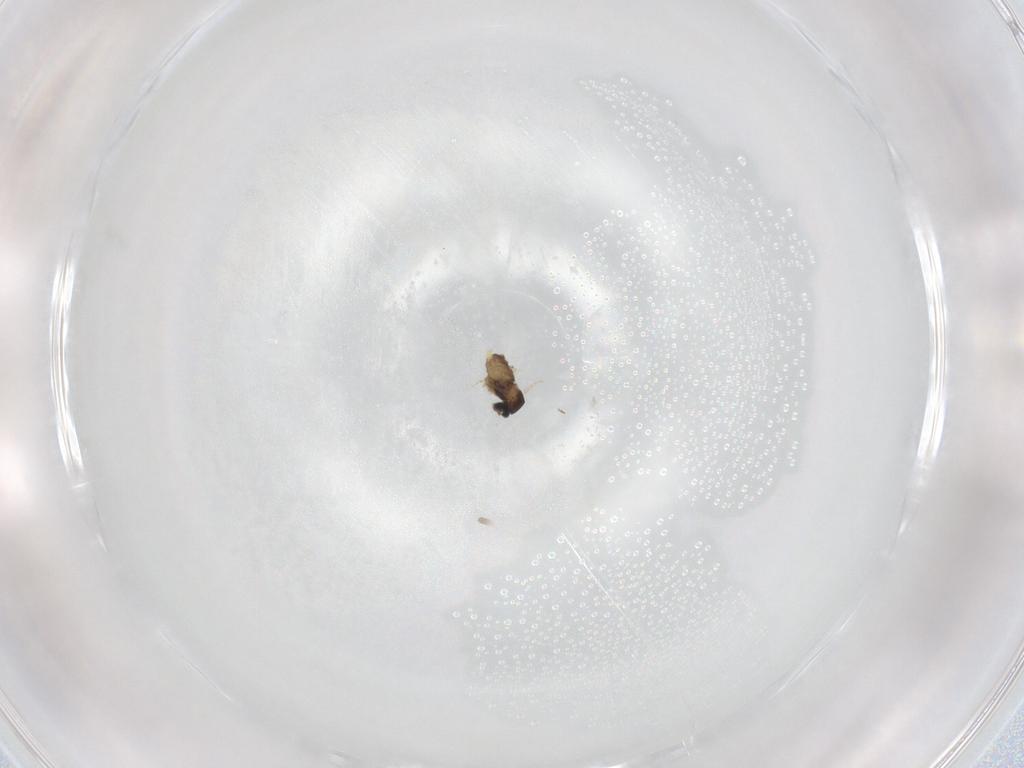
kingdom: Animalia
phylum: Arthropoda
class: Insecta
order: Diptera
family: Cecidomyiidae
